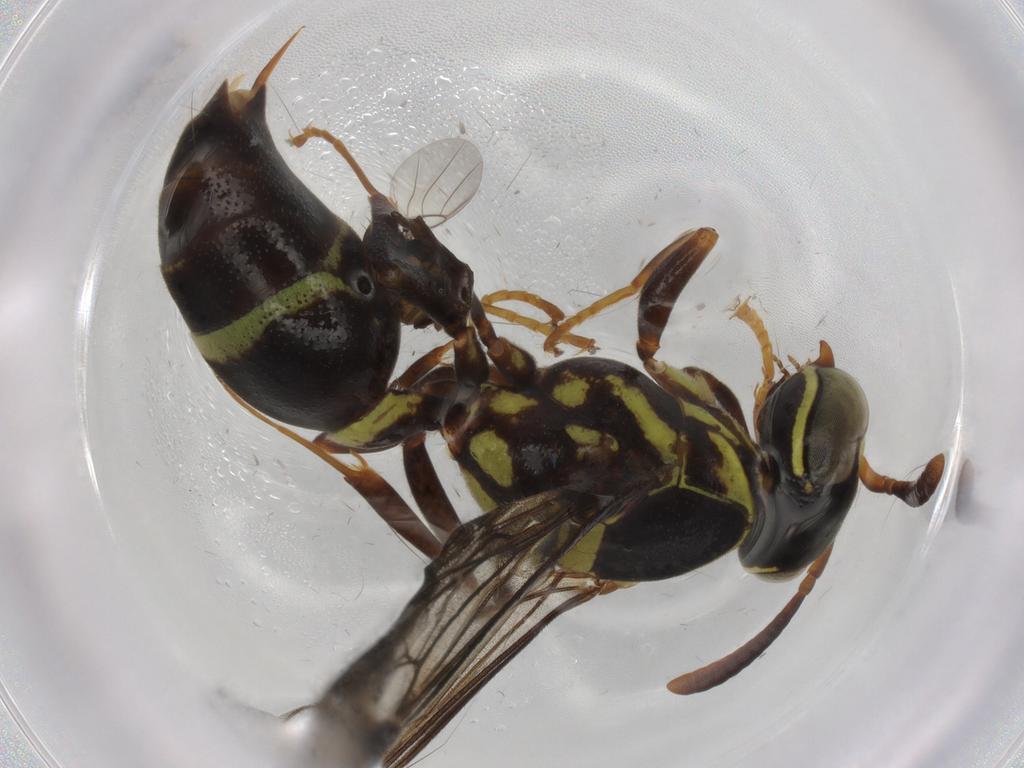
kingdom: Animalia
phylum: Arthropoda
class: Insecta
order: Hymenoptera
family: Vespidae
